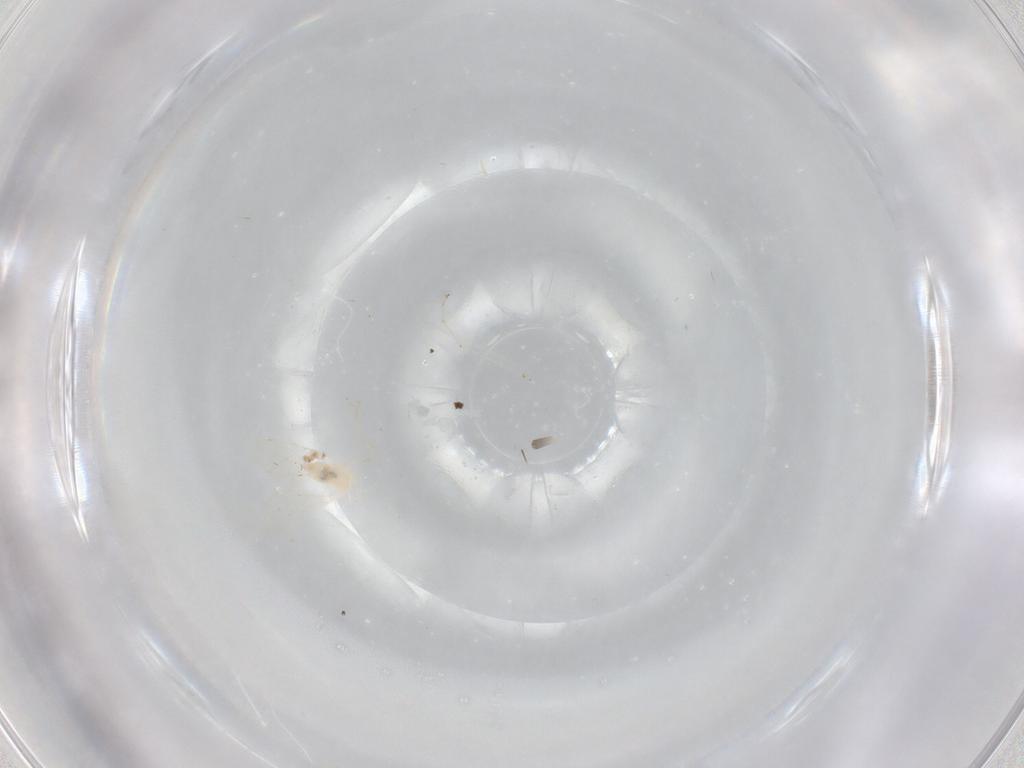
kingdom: Animalia
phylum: Arthropoda
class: Insecta
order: Diptera
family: Cecidomyiidae
